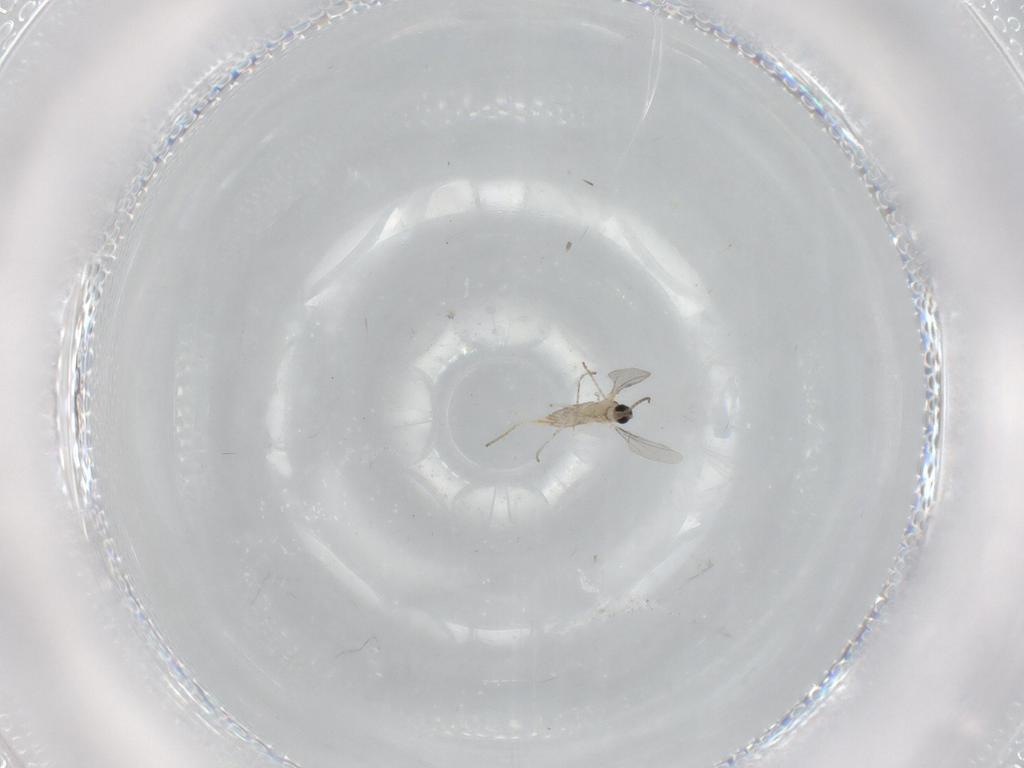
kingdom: Animalia
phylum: Arthropoda
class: Insecta
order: Diptera
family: Cecidomyiidae
